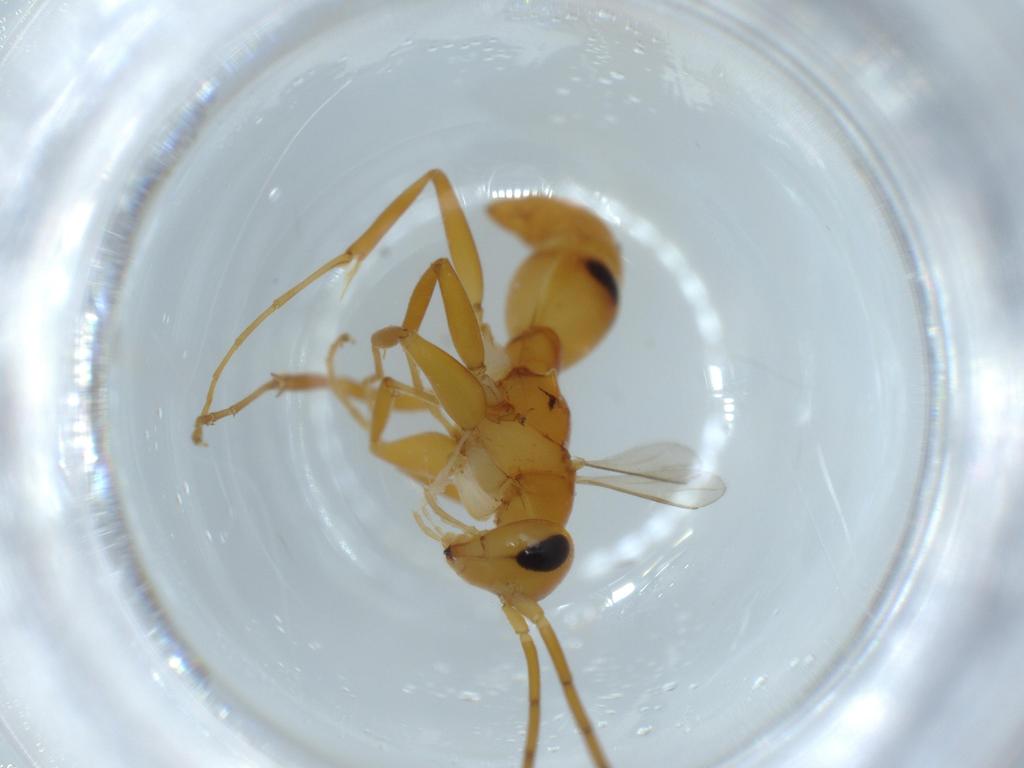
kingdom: Animalia
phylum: Arthropoda
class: Insecta
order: Hymenoptera
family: Rhopalosomatidae
